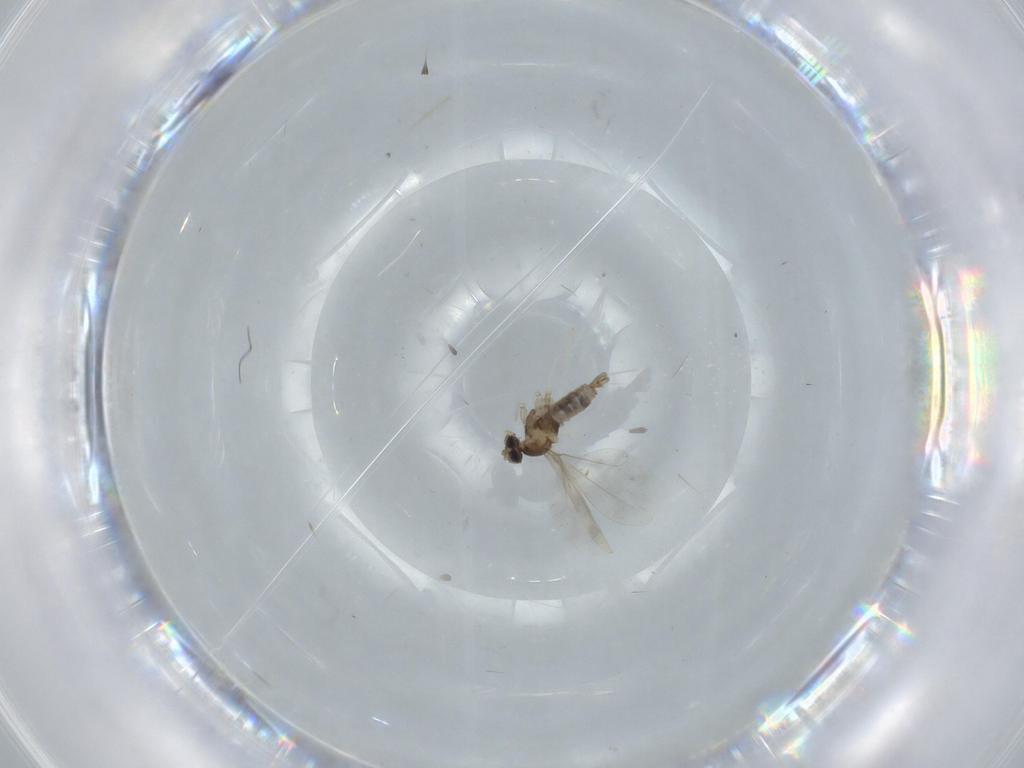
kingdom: Animalia
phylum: Arthropoda
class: Insecta
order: Diptera
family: Cecidomyiidae
